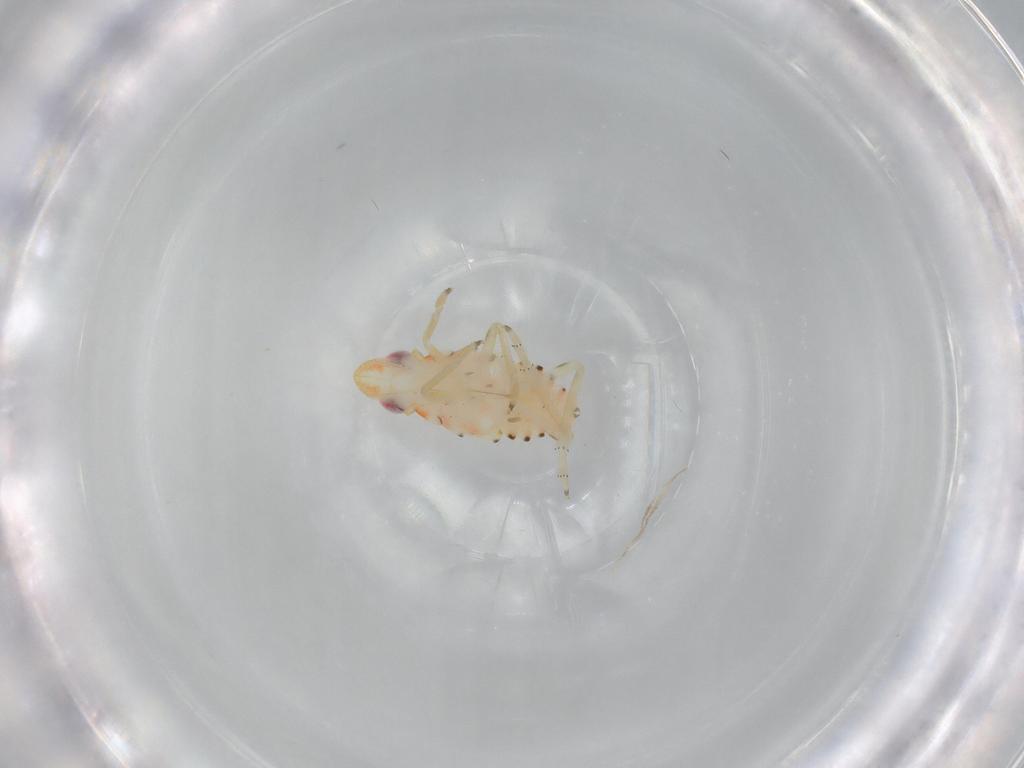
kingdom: Animalia
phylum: Arthropoda
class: Insecta
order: Hemiptera
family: Tropiduchidae
